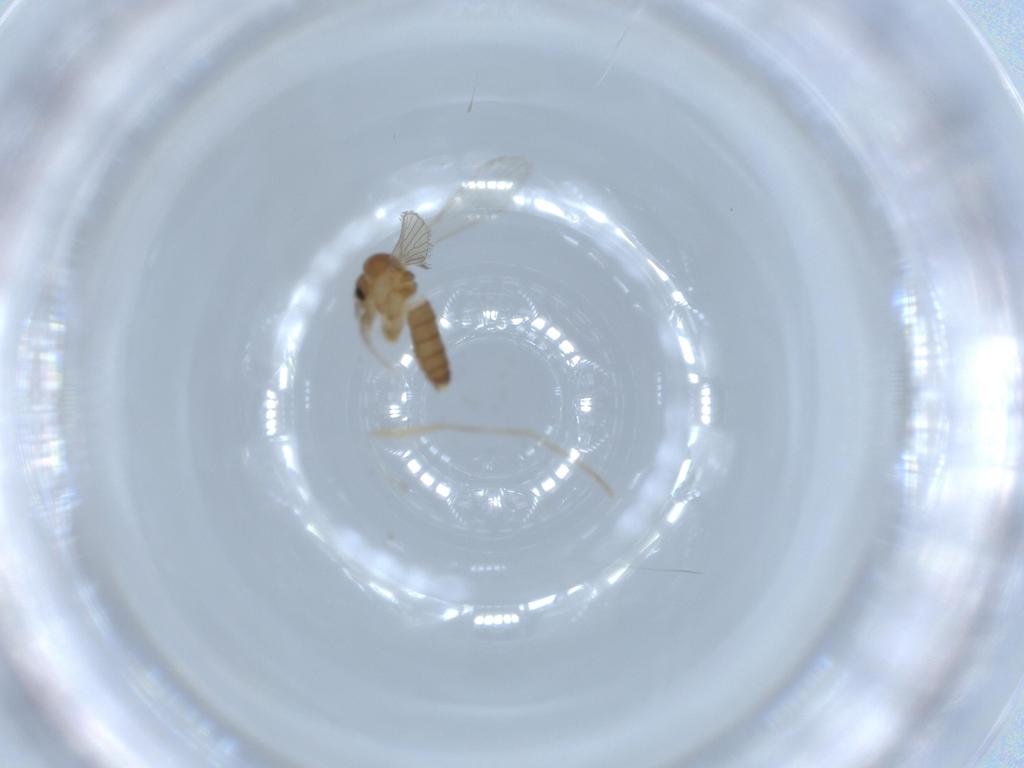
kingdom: Animalia
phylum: Arthropoda
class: Insecta
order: Diptera
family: Psychodidae
